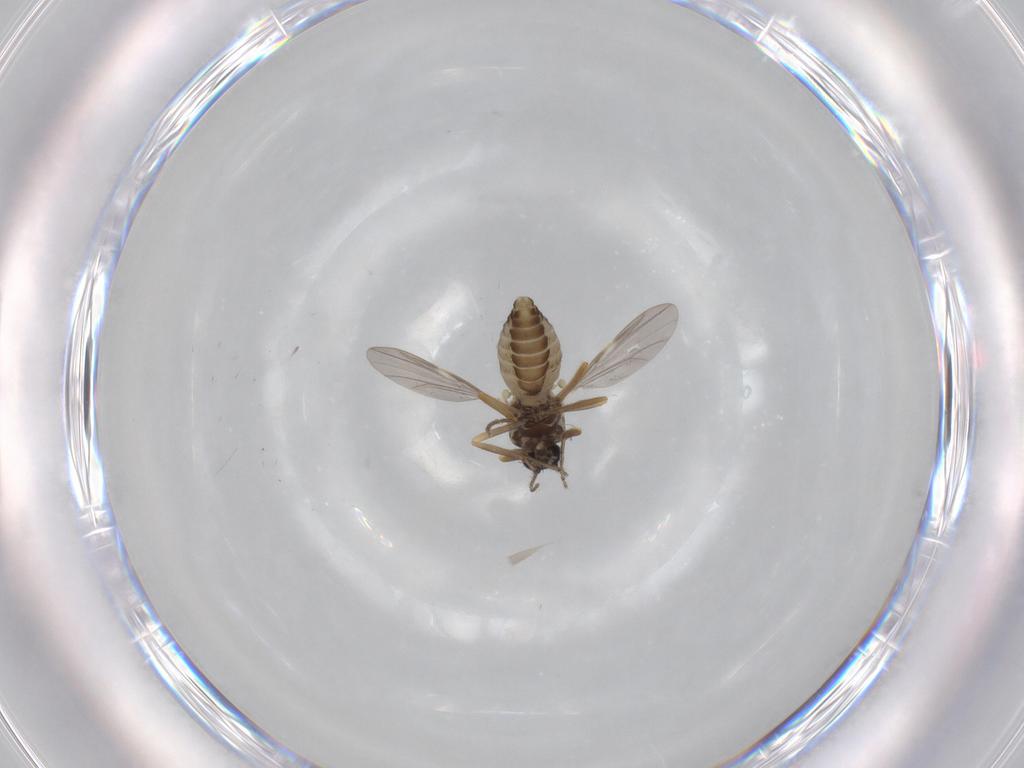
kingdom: Animalia
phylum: Arthropoda
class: Insecta
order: Diptera
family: Ceratopogonidae
